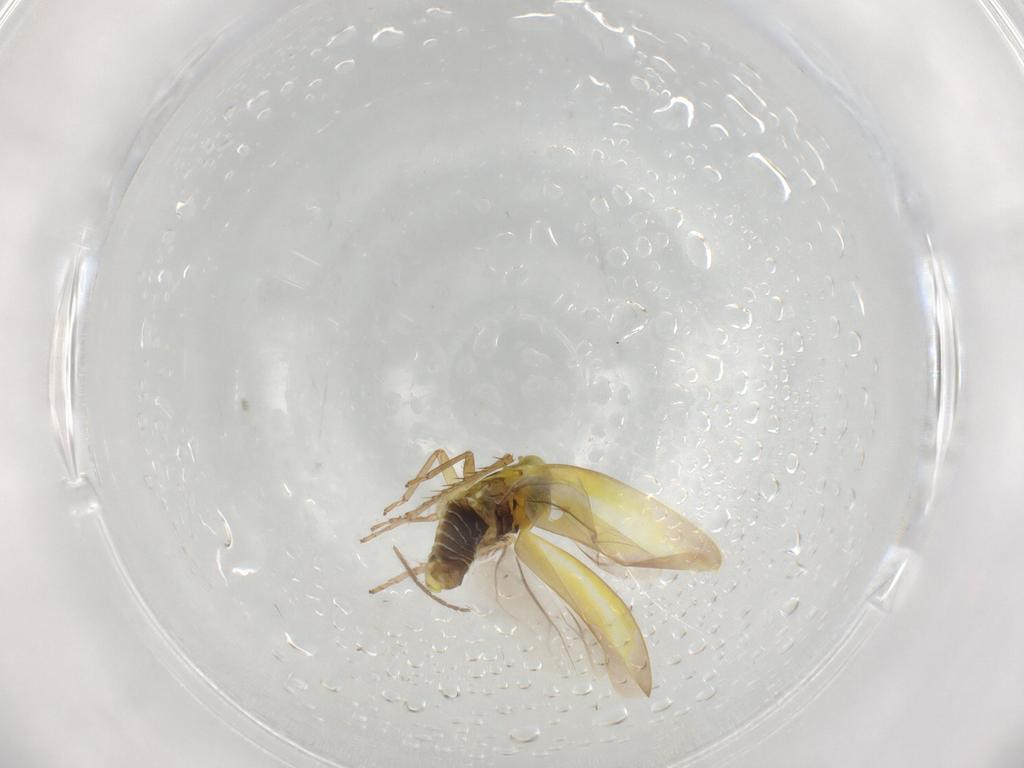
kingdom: Animalia
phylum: Arthropoda
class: Insecta
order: Hemiptera
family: Cicadellidae
